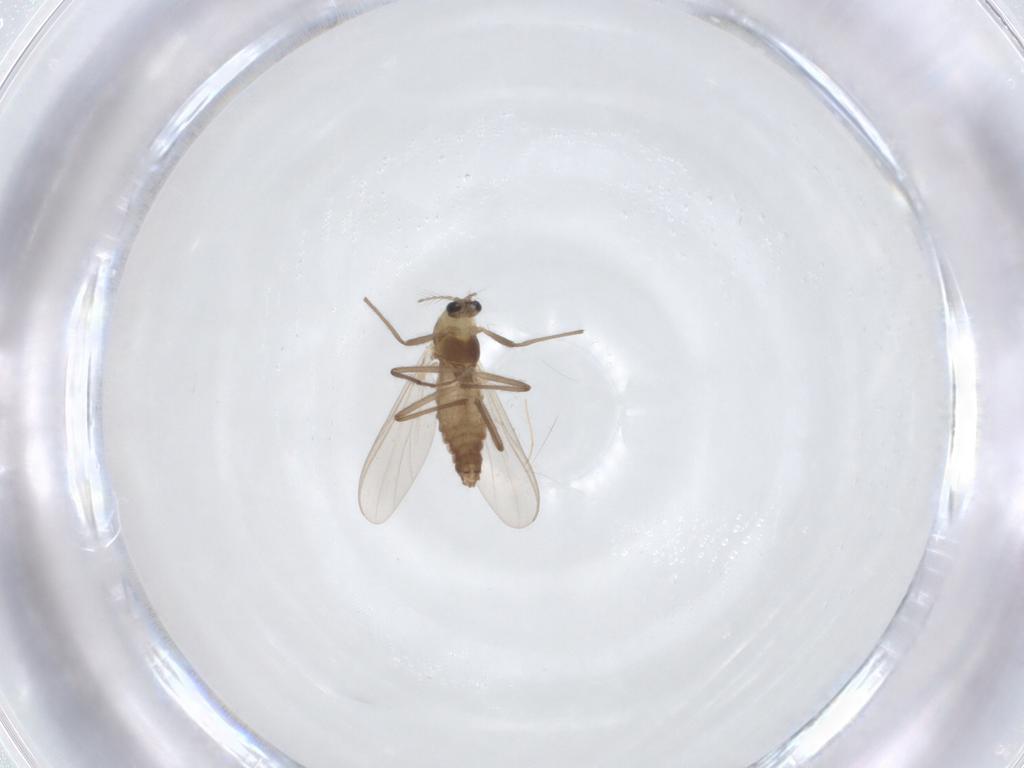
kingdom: Animalia
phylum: Arthropoda
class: Insecta
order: Diptera
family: Chironomidae
